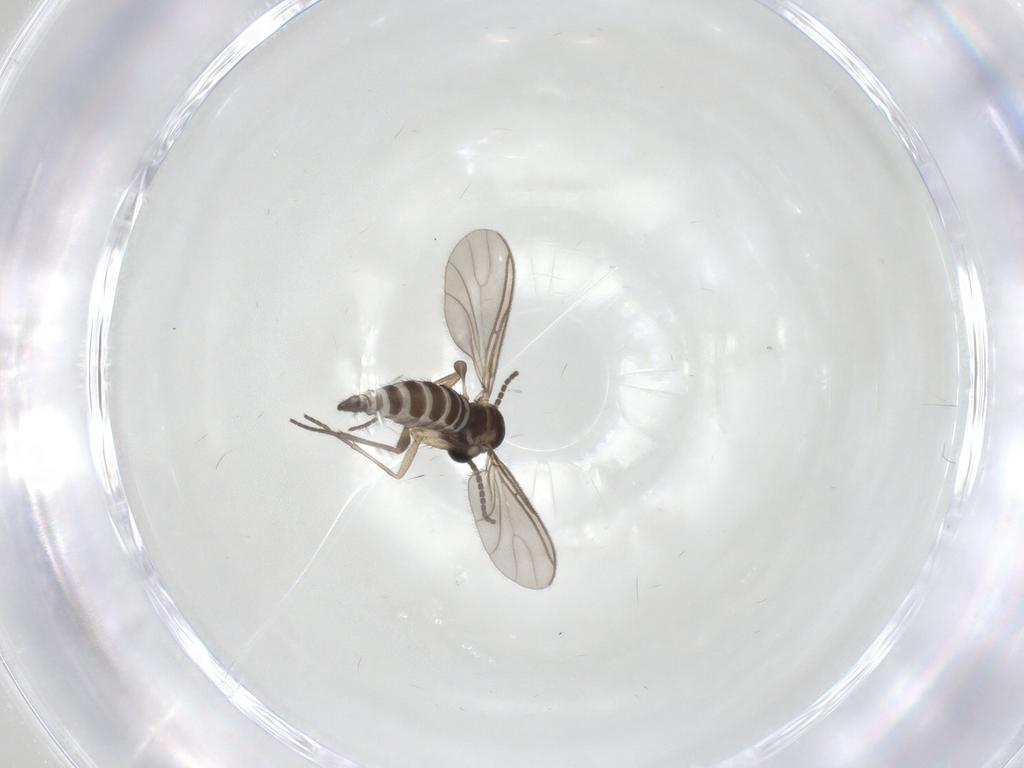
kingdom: Animalia
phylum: Arthropoda
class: Insecta
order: Diptera
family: Sciaridae
